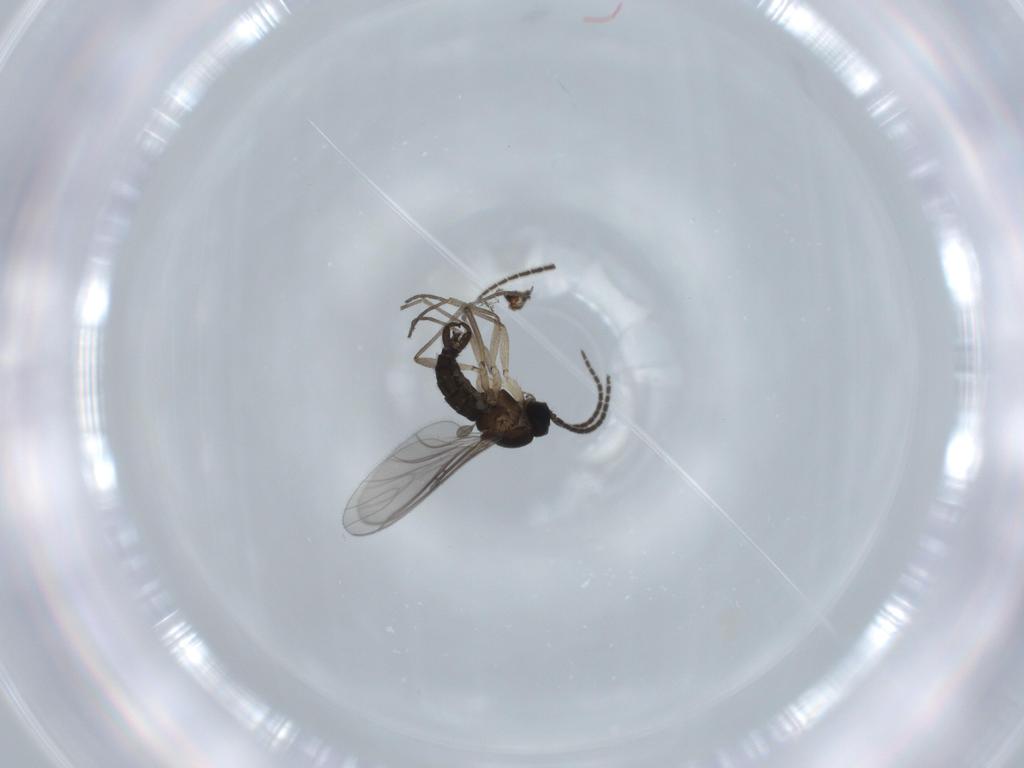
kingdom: Animalia
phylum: Arthropoda
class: Insecta
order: Diptera
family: Sciaridae
